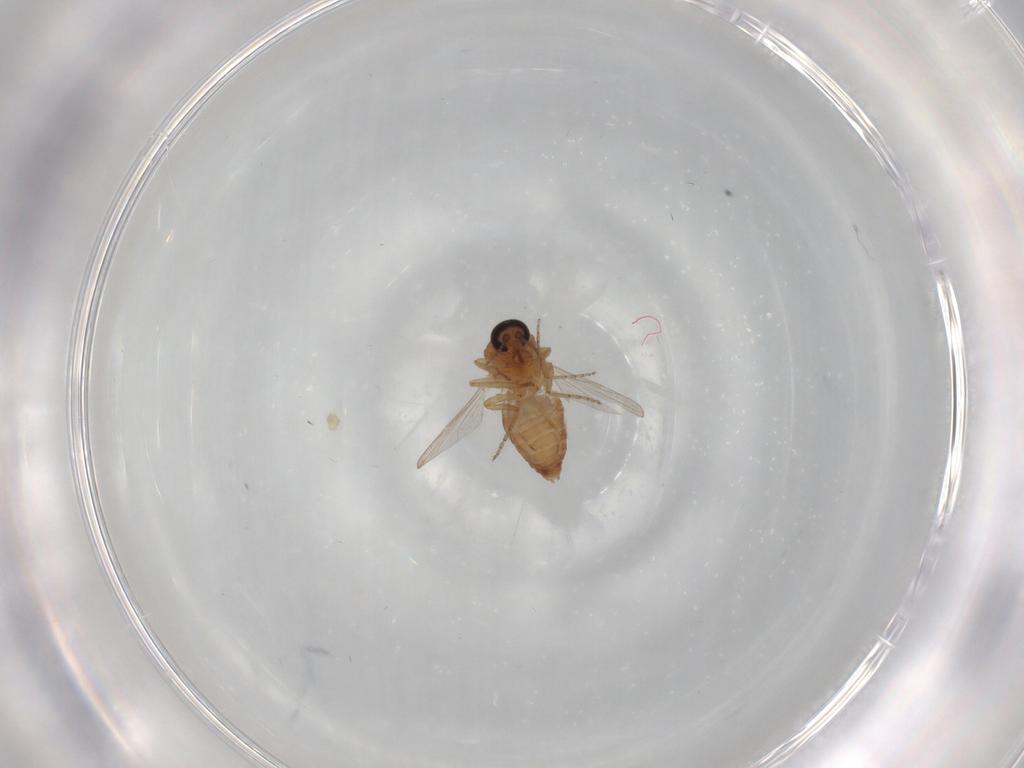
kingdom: Animalia
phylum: Arthropoda
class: Insecta
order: Diptera
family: Ceratopogonidae
